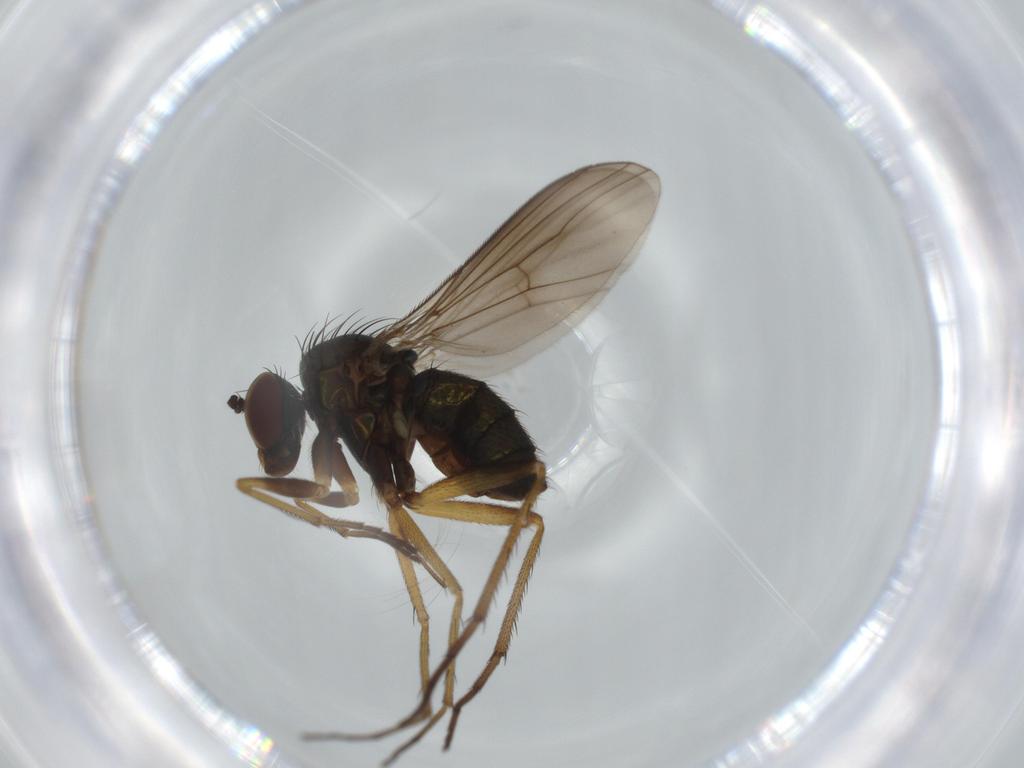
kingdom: Animalia
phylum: Arthropoda
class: Insecta
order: Diptera
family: Dolichopodidae
